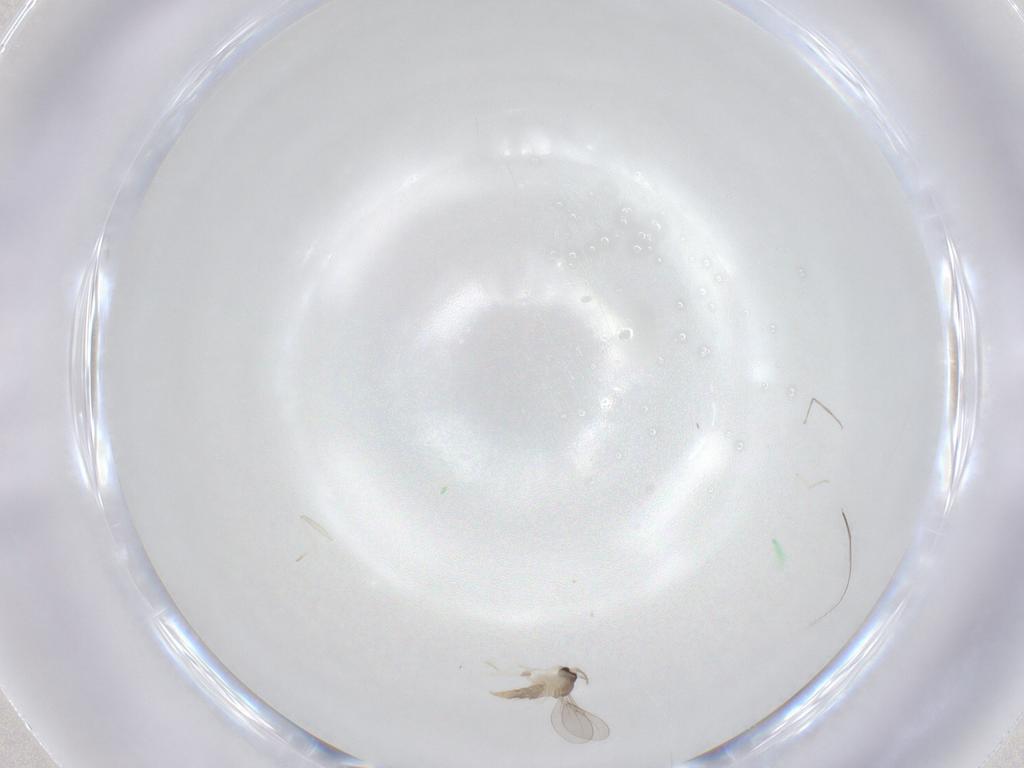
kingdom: Animalia
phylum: Arthropoda
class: Insecta
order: Diptera
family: Cecidomyiidae
